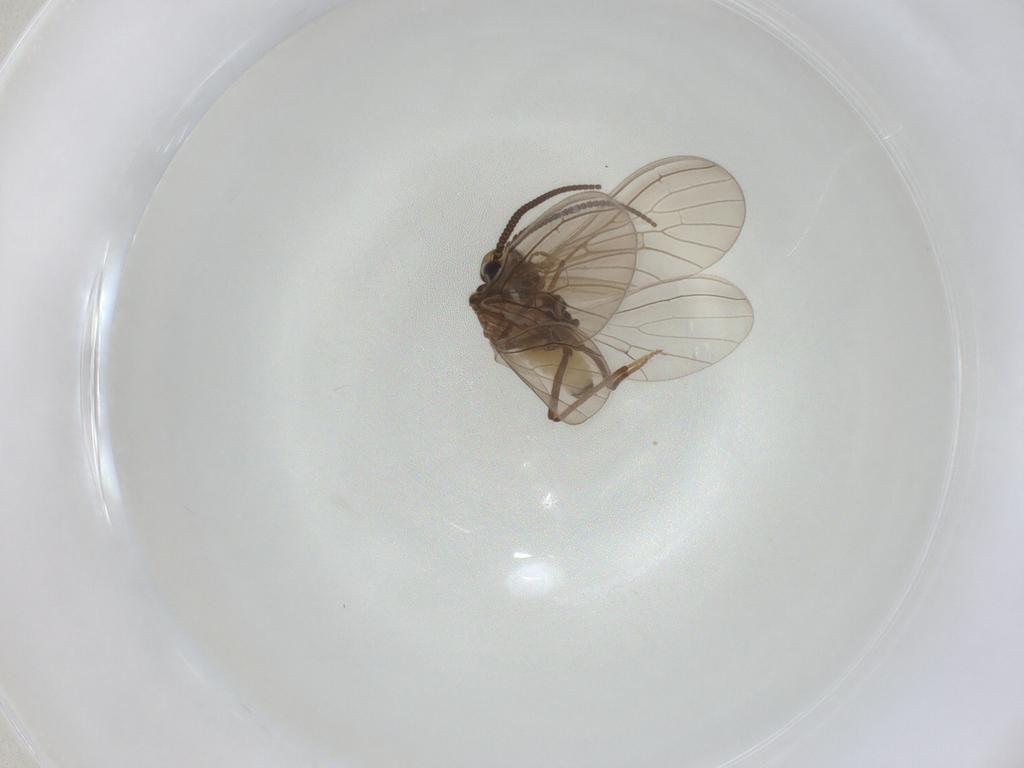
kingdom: Animalia
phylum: Arthropoda
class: Insecta
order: Neuroptera
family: Coniopterygidae
